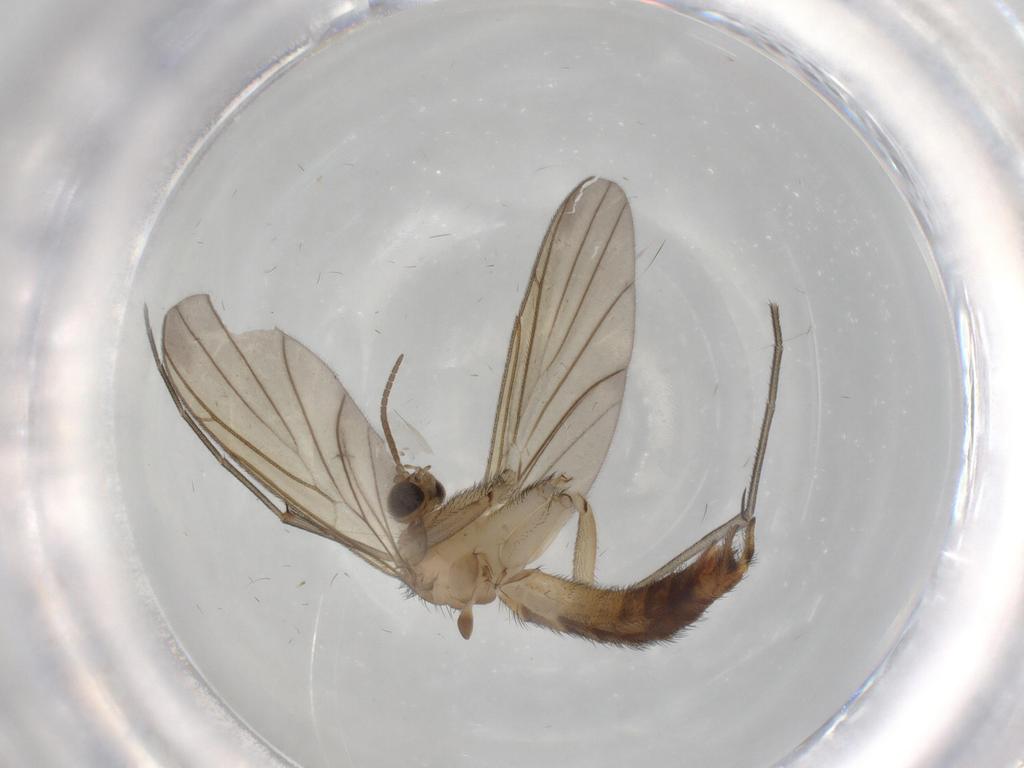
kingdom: Animalia
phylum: Arthropoda
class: Insecta
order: Diptera
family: Keroplatidae
